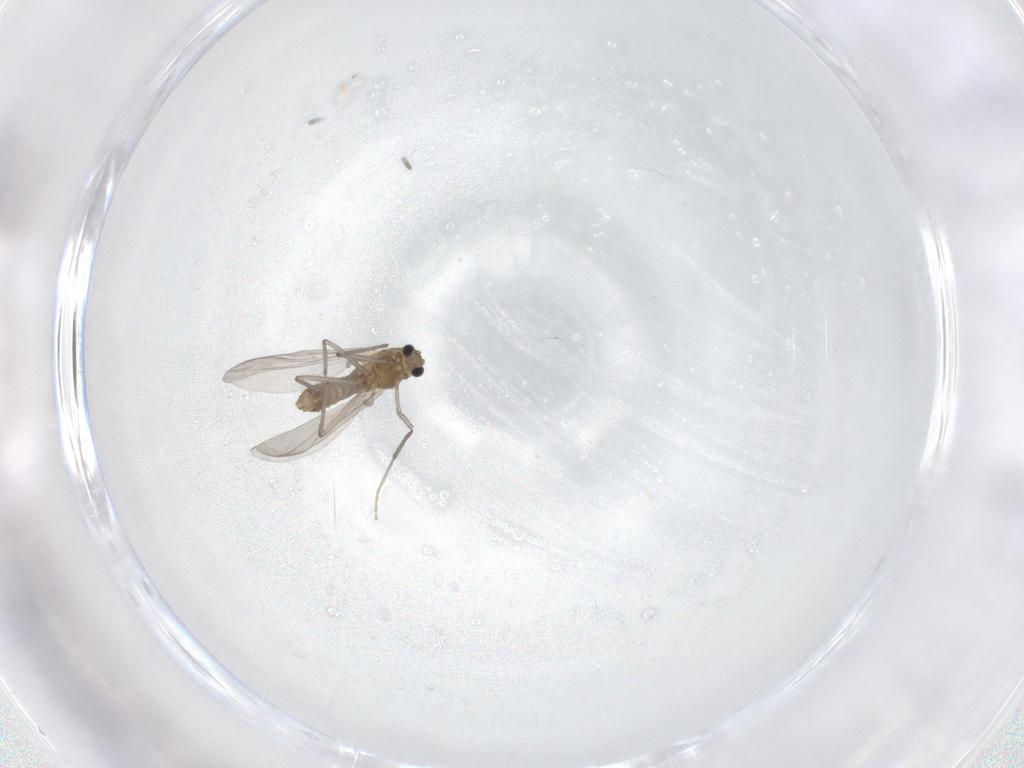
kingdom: Animalia
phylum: Arthropoda
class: Insecta
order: Diptera
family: Chironomidae
